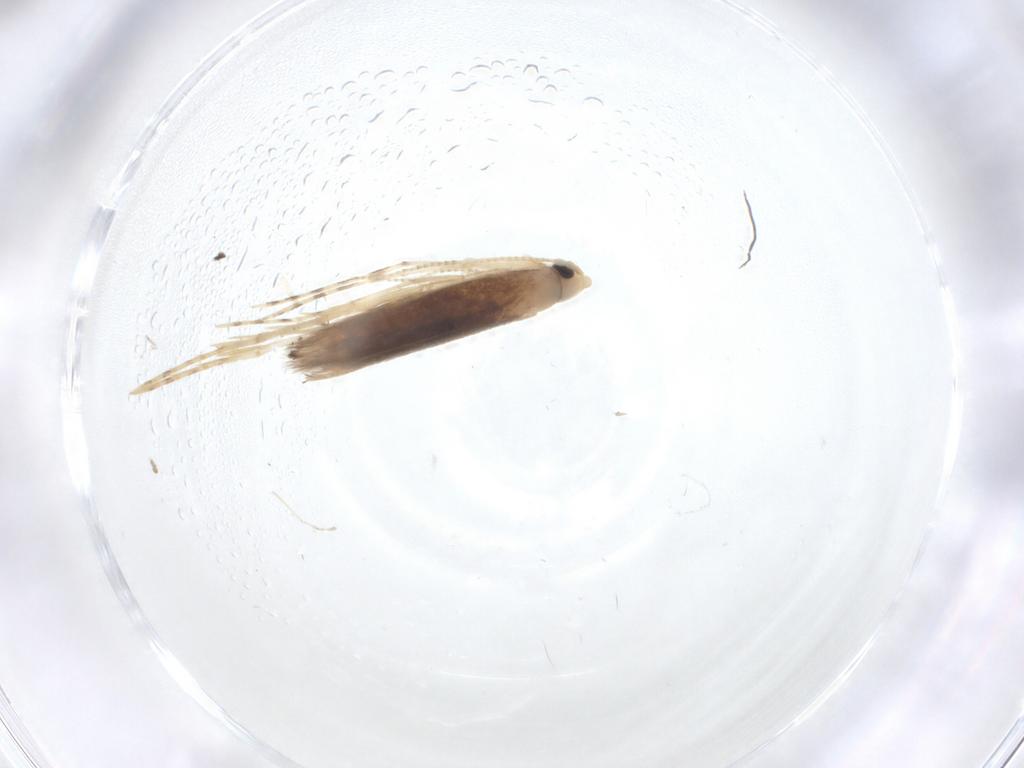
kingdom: Animalia
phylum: Arthropoda
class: Insecta
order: Lepidoptera
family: Lyonetiidae
